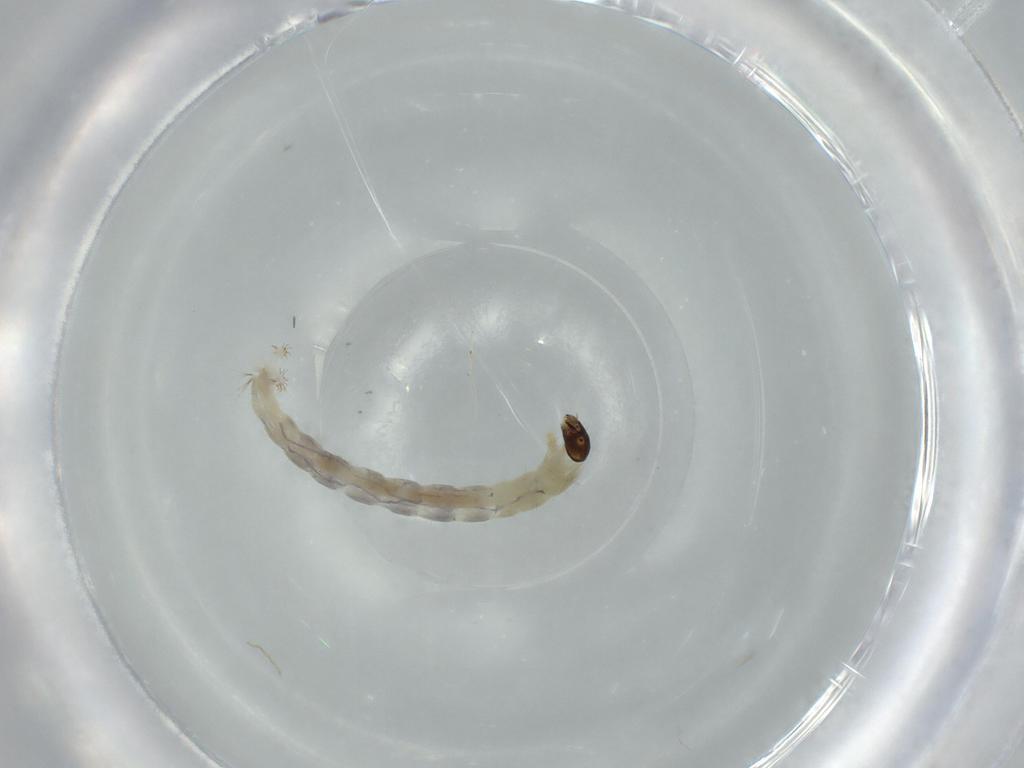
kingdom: Animalia
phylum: Arthropoda
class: Insecta
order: Diptera
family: Chironomidae
